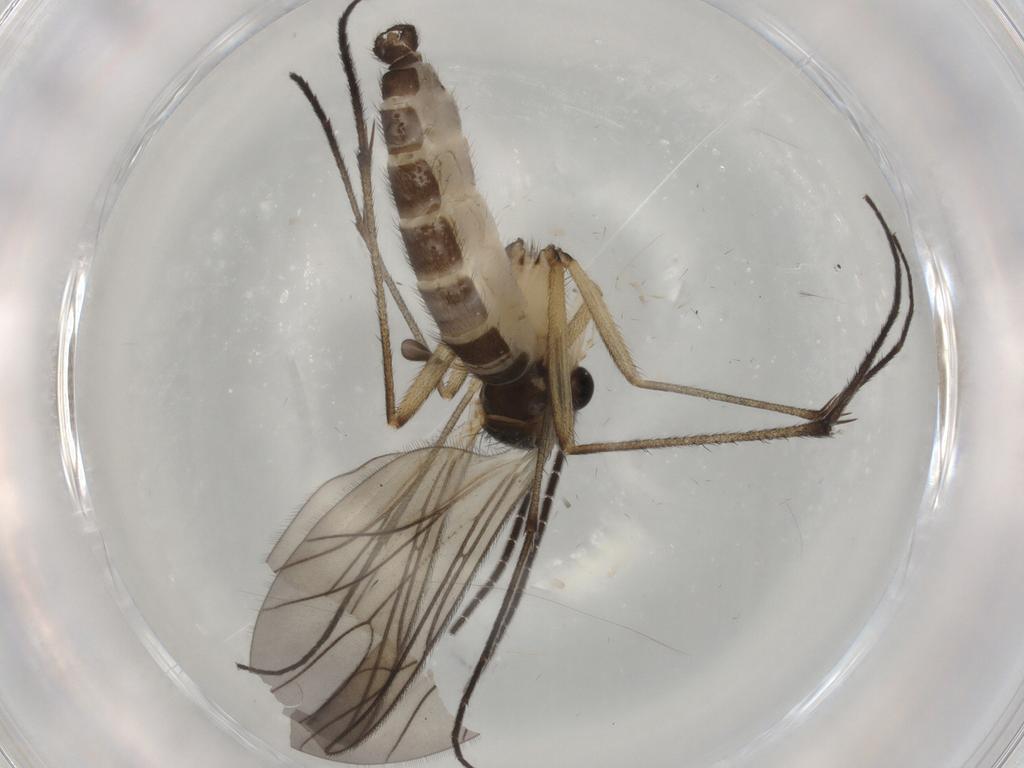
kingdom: Animalia
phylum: Arthropoda
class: Insecta
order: Diptera
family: Sciaridae
